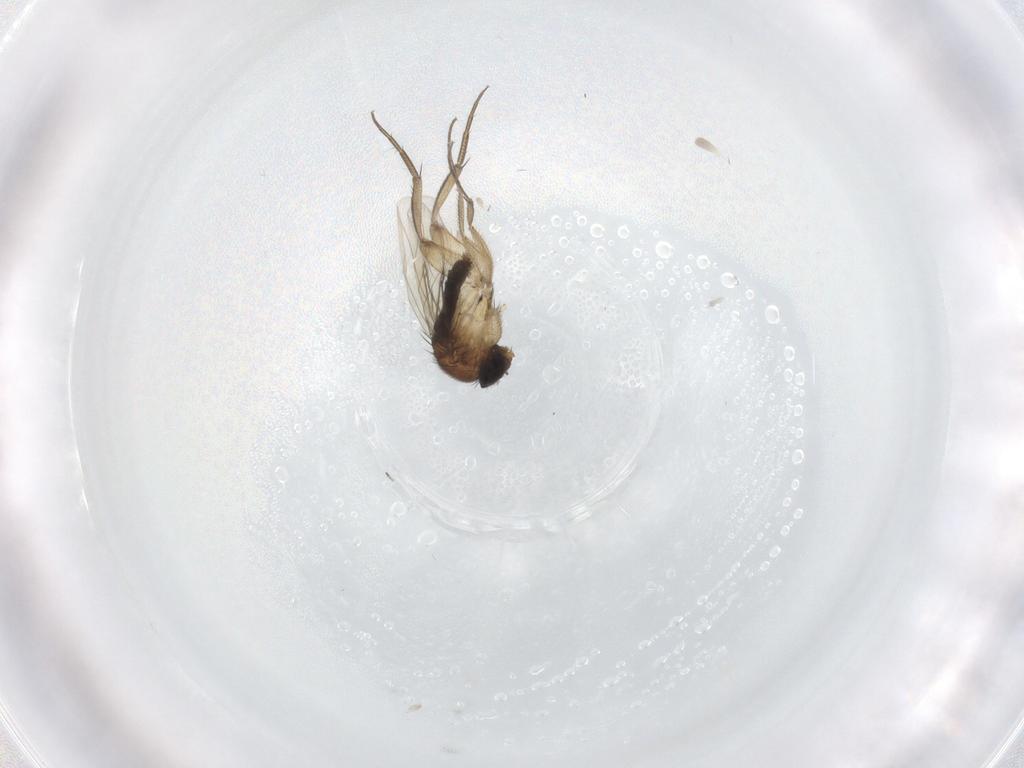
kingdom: Animalia
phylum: Arthropoda
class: Insecta
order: Diptera
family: Phoridae
